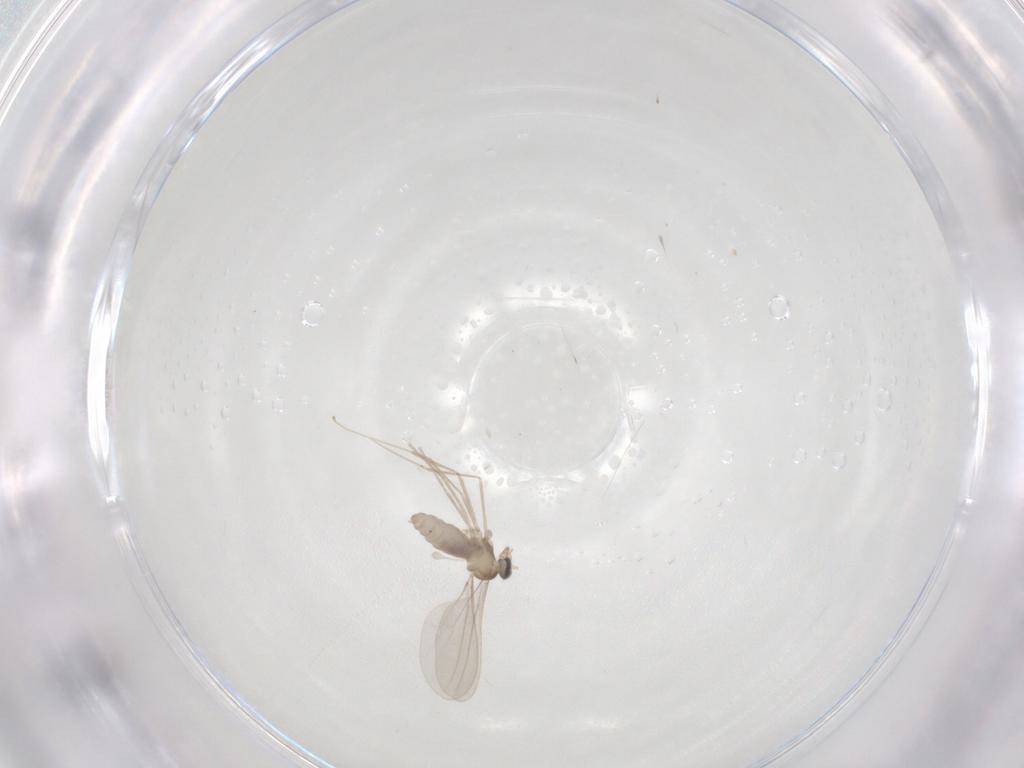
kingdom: Animalia
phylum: Arthropoda
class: Insecta
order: Diptera
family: Cecidomyiidae
